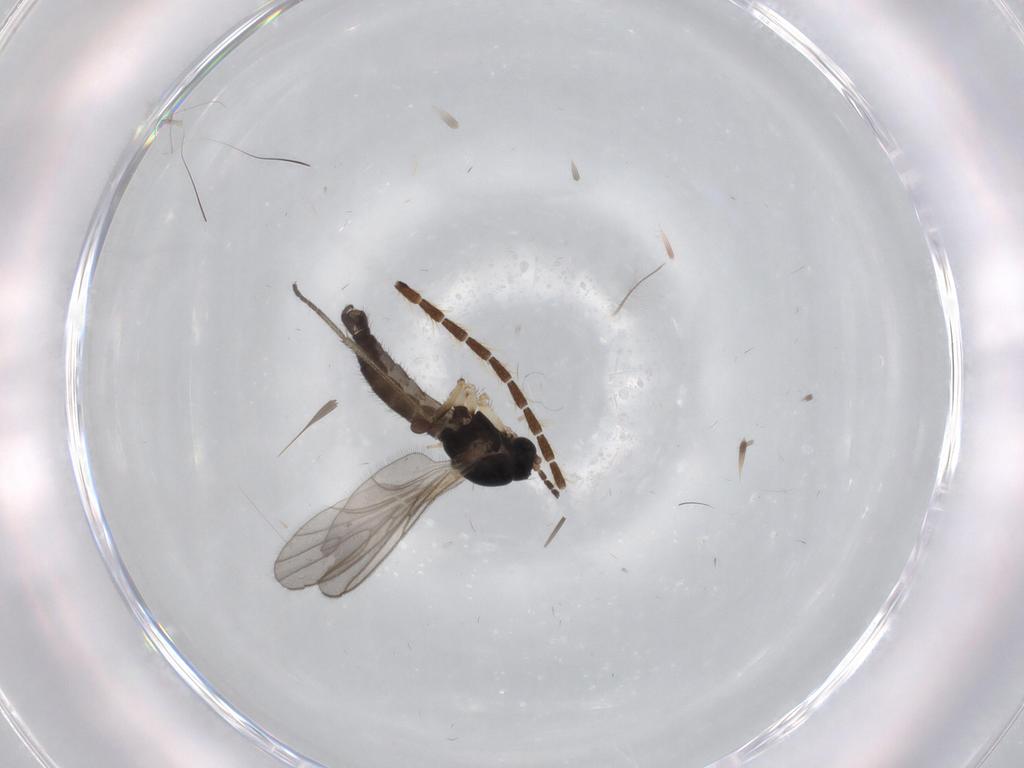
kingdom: Animalia
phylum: Arthropoda
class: Insecta
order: Diptera
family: Sciaridae
